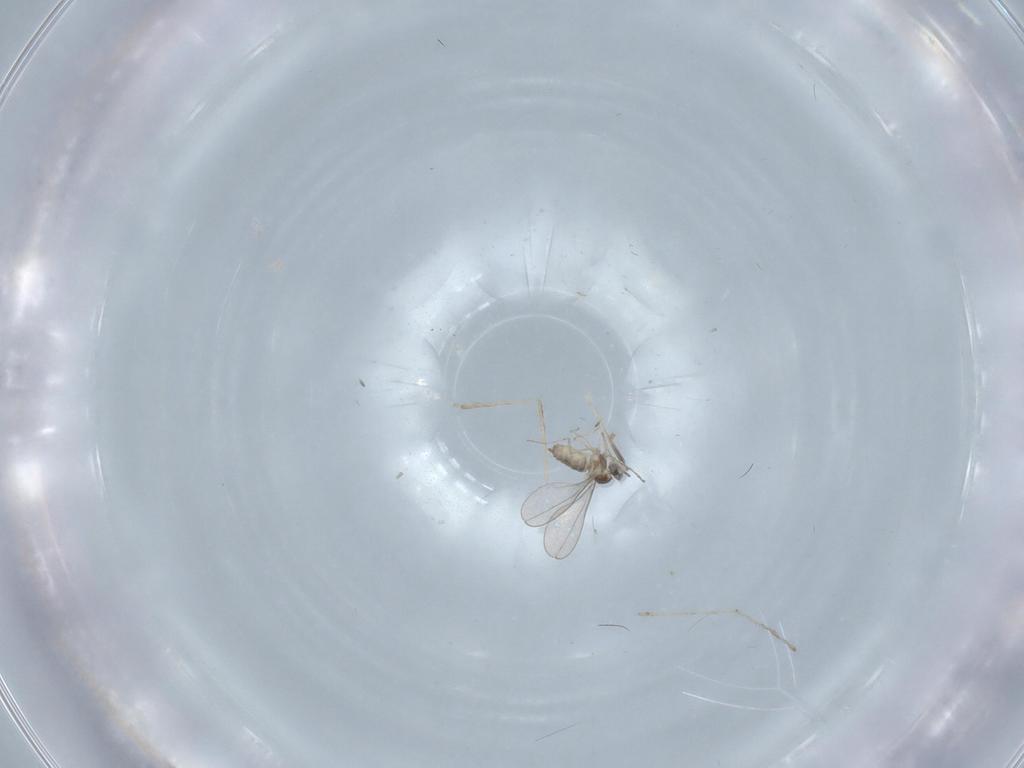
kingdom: Animalia
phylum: Arthropoda
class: Insecta
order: Diptera
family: Cecidomyiidae
